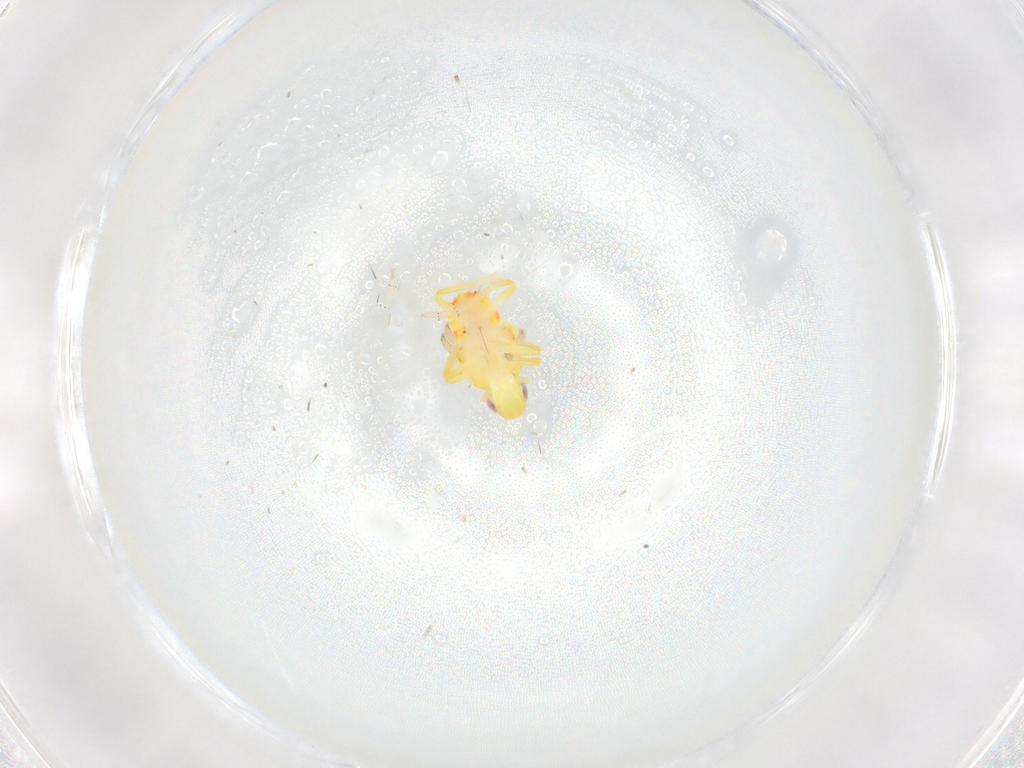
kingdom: Animalia
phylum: Arthropoda
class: Insecta
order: Hemiptera
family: Tropiduchidae
